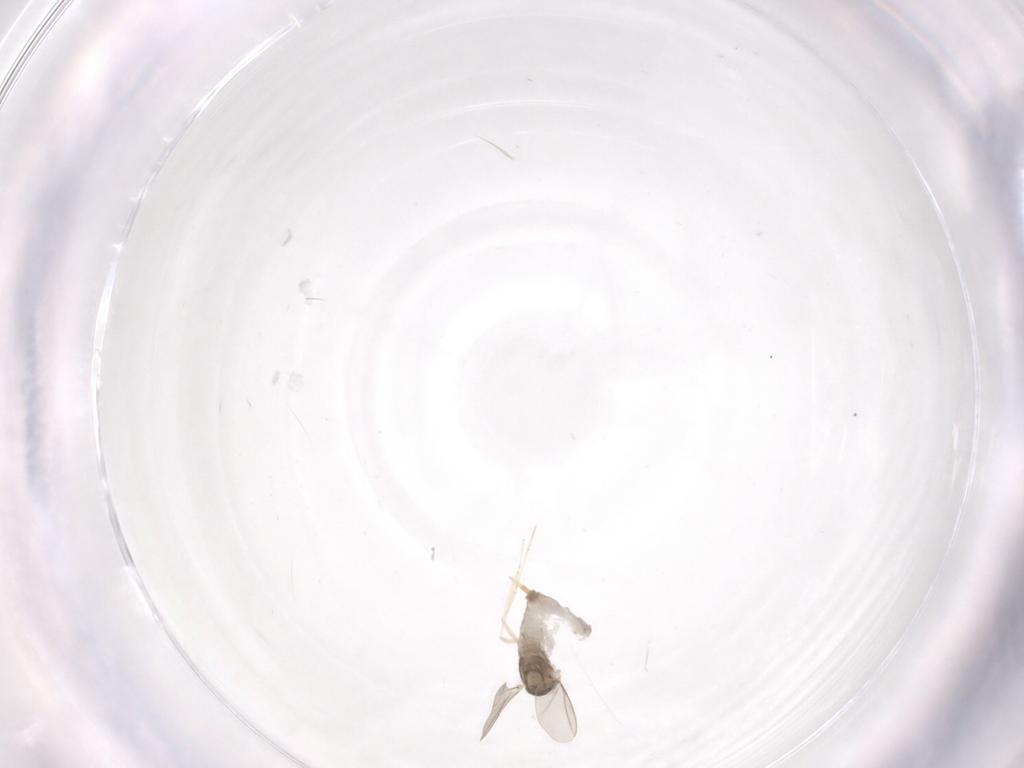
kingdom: Animalia
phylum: Arthropoda
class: Insecta
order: Diptera
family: Cecidomyiidae
